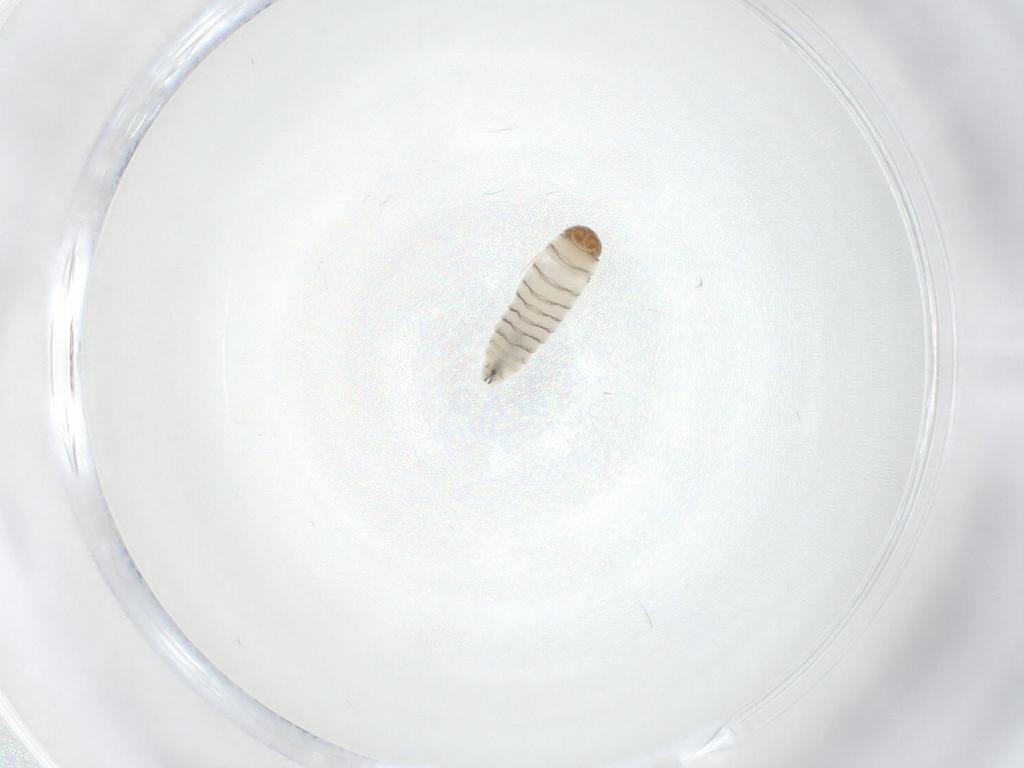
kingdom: Animalia
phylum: Arthropoda
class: Insecta
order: Diptera
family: Sarcophagidae
